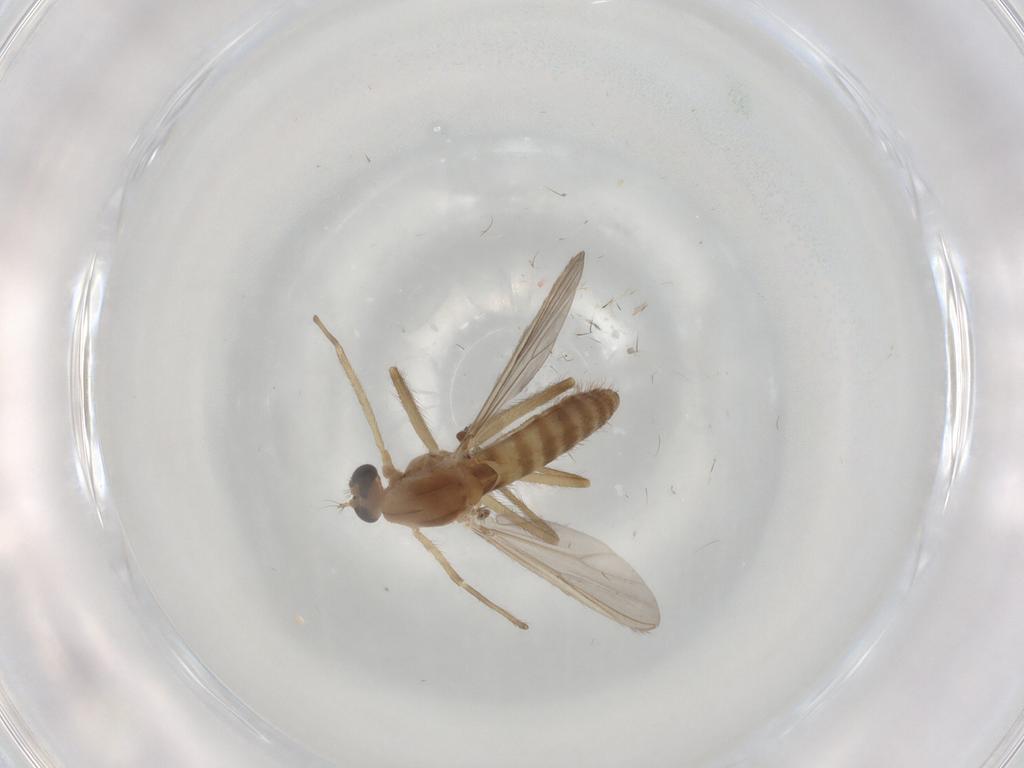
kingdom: Animalia
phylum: Arthropoda
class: Insecta
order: Diptera
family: Chironomidae
